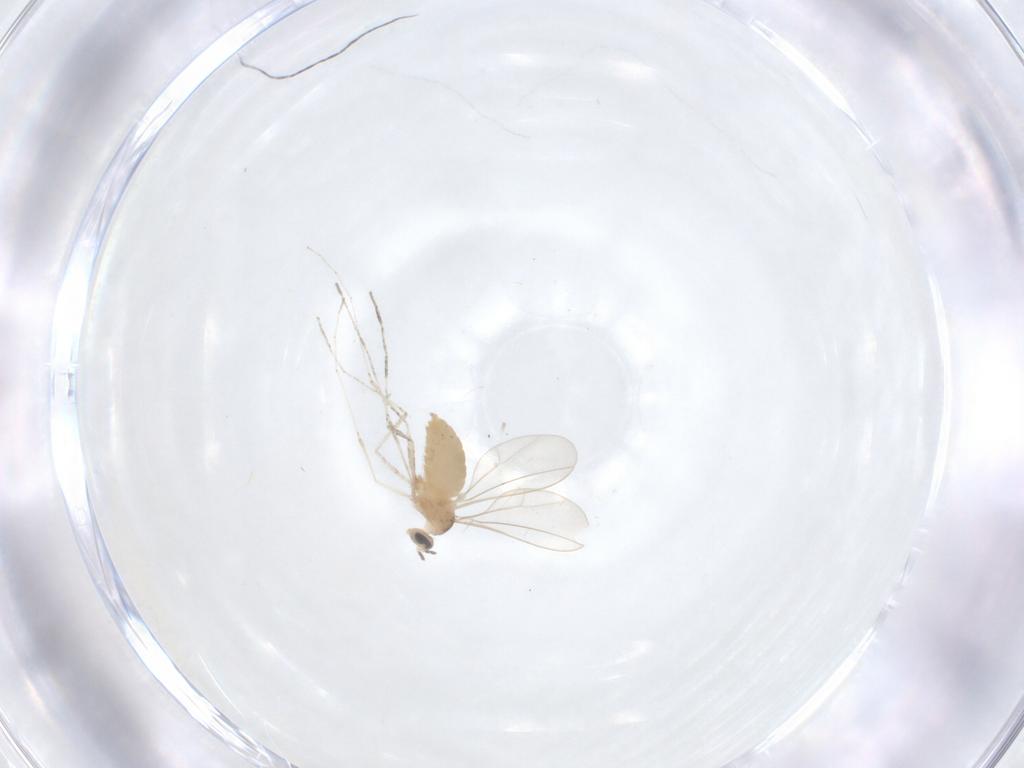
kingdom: Animalia
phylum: Arthropoda
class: Insecta
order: Diptera
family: Cecidomyiidae
